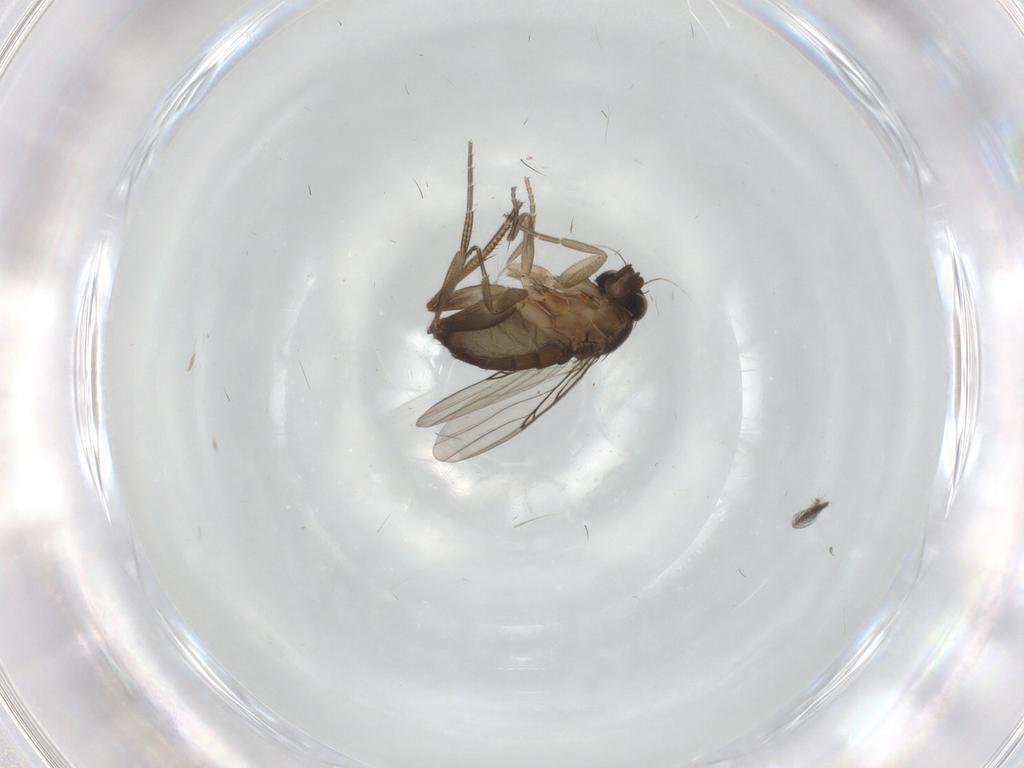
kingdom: Animalia
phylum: Arthropoda
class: Insecta
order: Diptera
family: Phoridae
